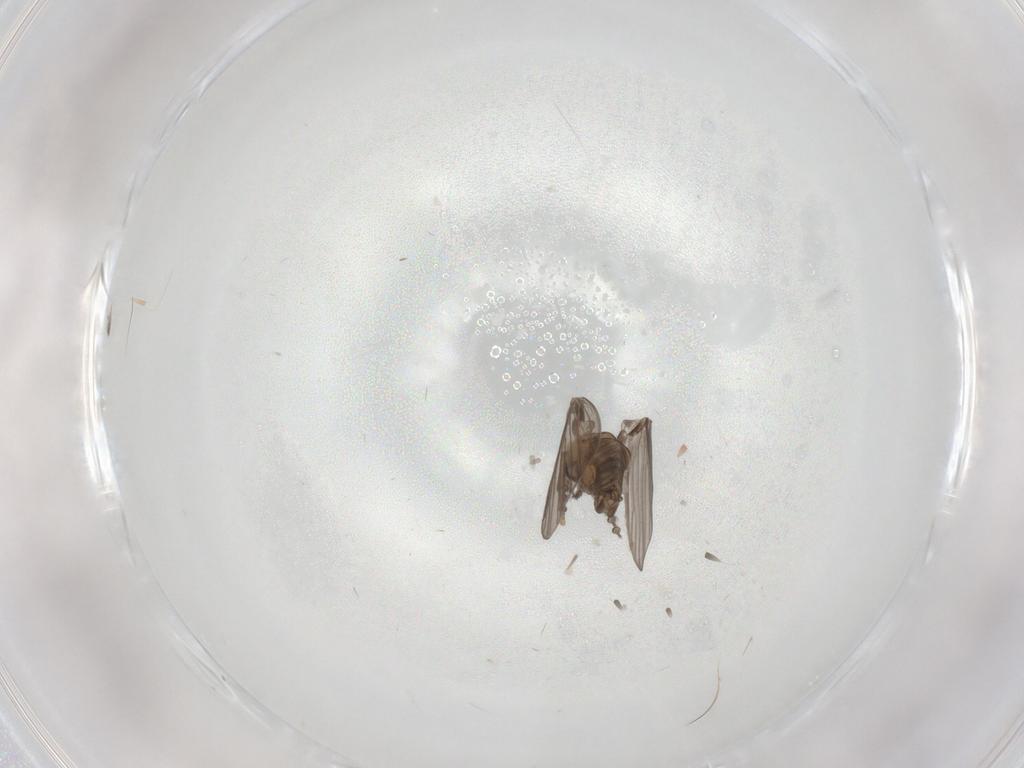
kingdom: Animalia
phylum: Arthropoda
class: Insecta
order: Diptera
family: Psychodidae
